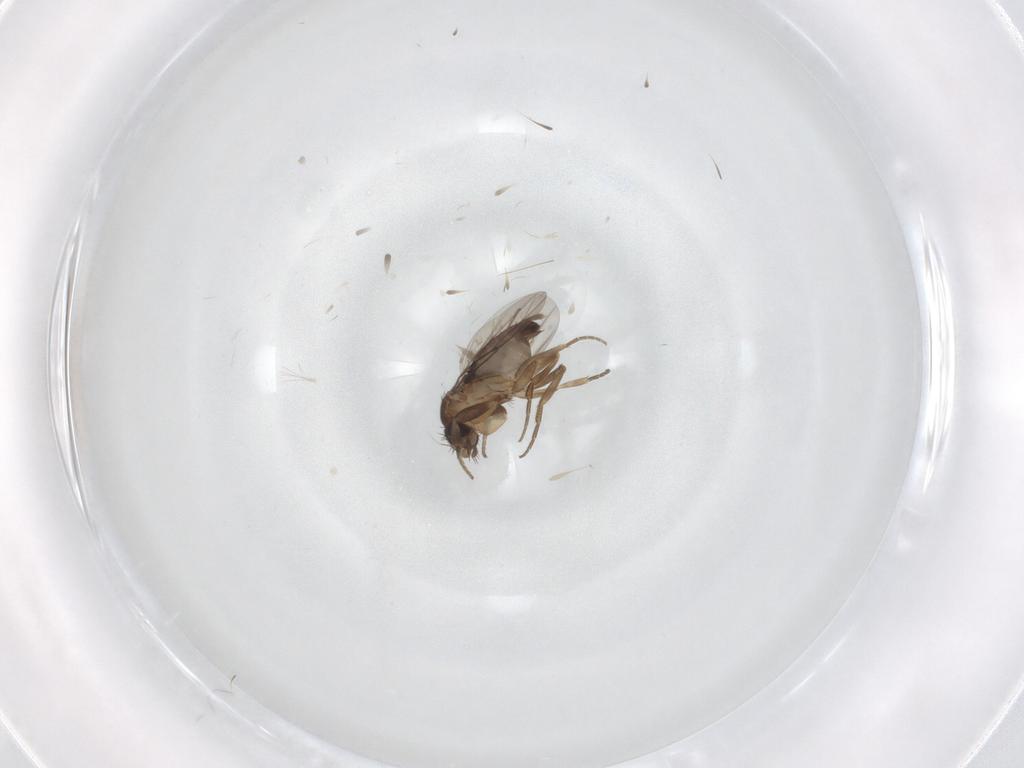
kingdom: Animalia
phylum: Arthropoda
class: Insecta
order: Diptera
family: Phoridae
